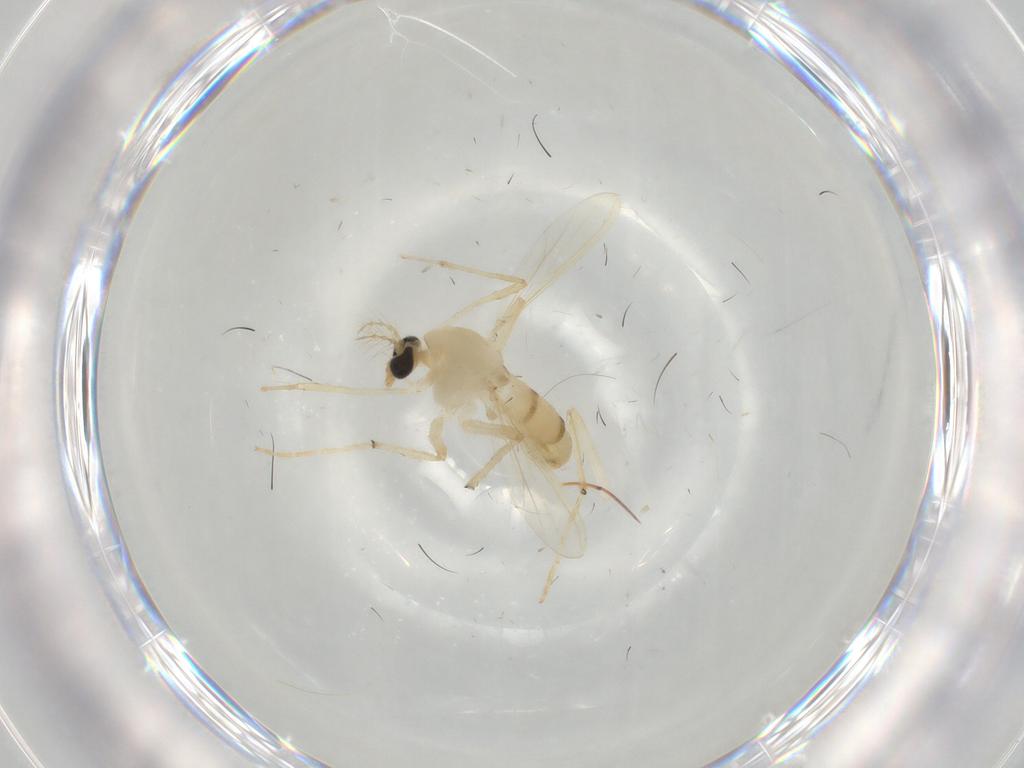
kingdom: Animalia
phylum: Arthropoda
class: Insecta
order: Diptera
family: Chironomidae
